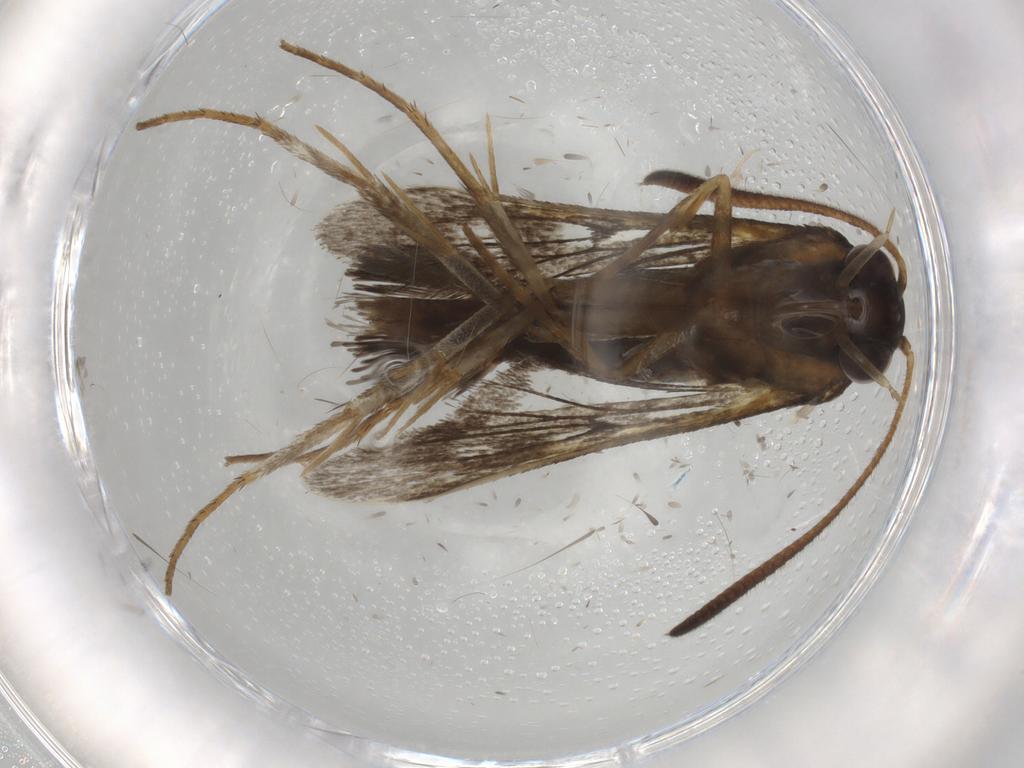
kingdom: Animalia
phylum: Arthropoda
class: Insecta
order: Lepidoptera
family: Sesiidae
